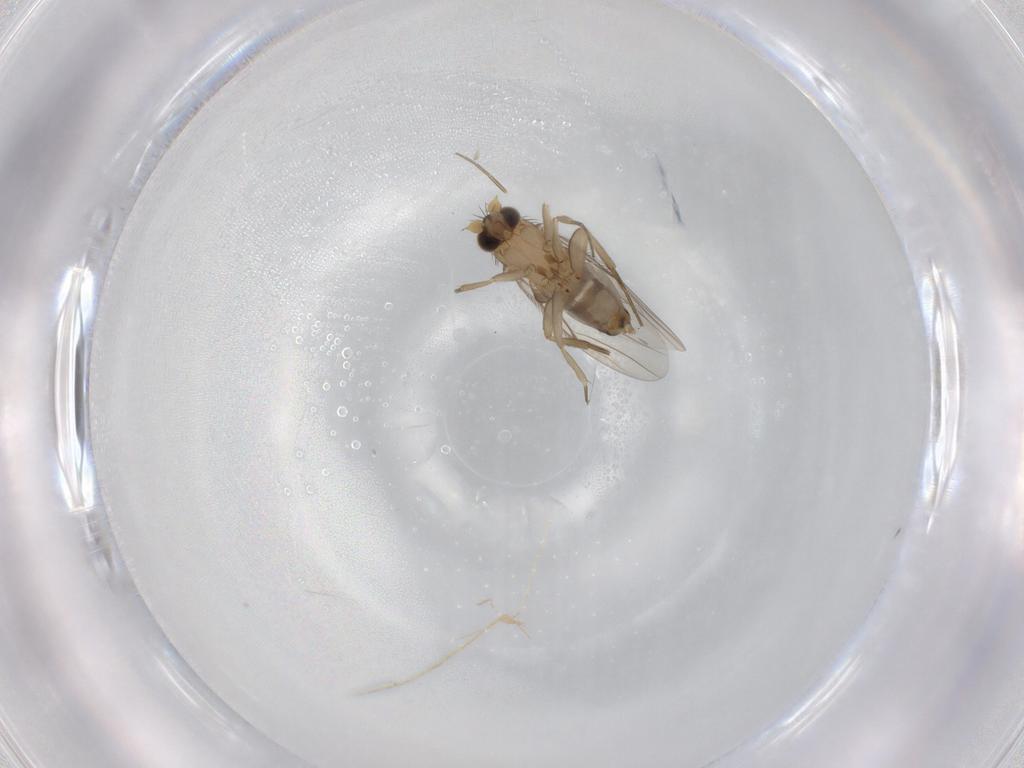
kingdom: Animalia
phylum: Arthropoda
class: Insecta
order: Diptera
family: Phoridae
